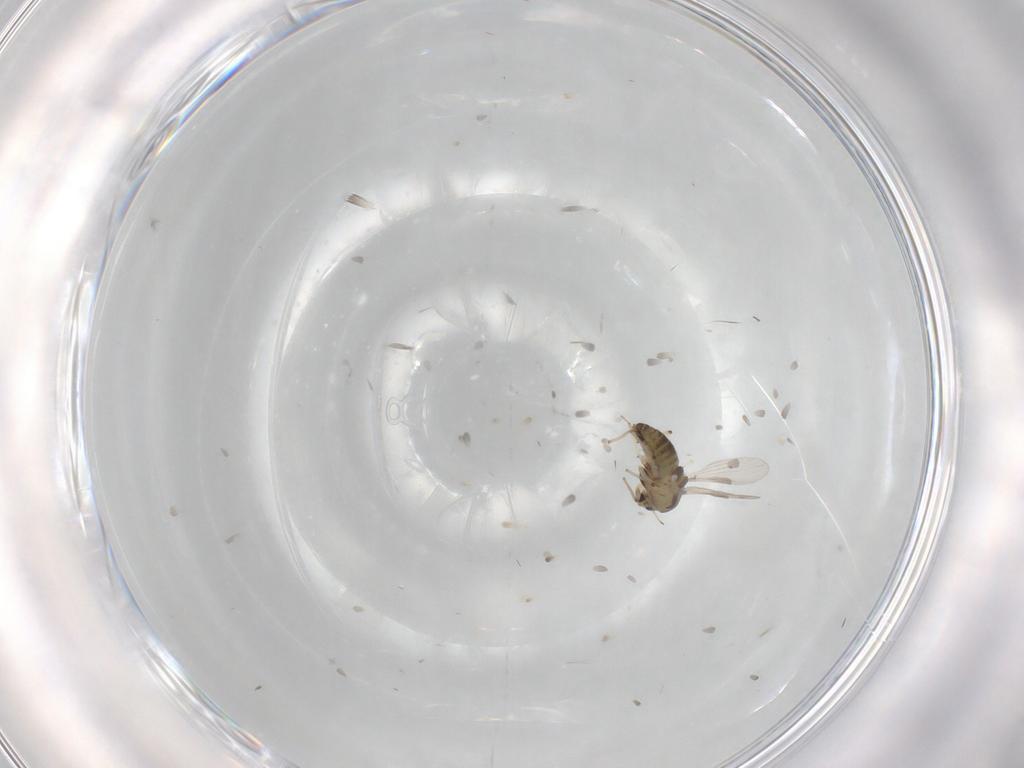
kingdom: Animalia
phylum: Arthropoda
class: Insecta
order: Diptera
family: Chironomidae
